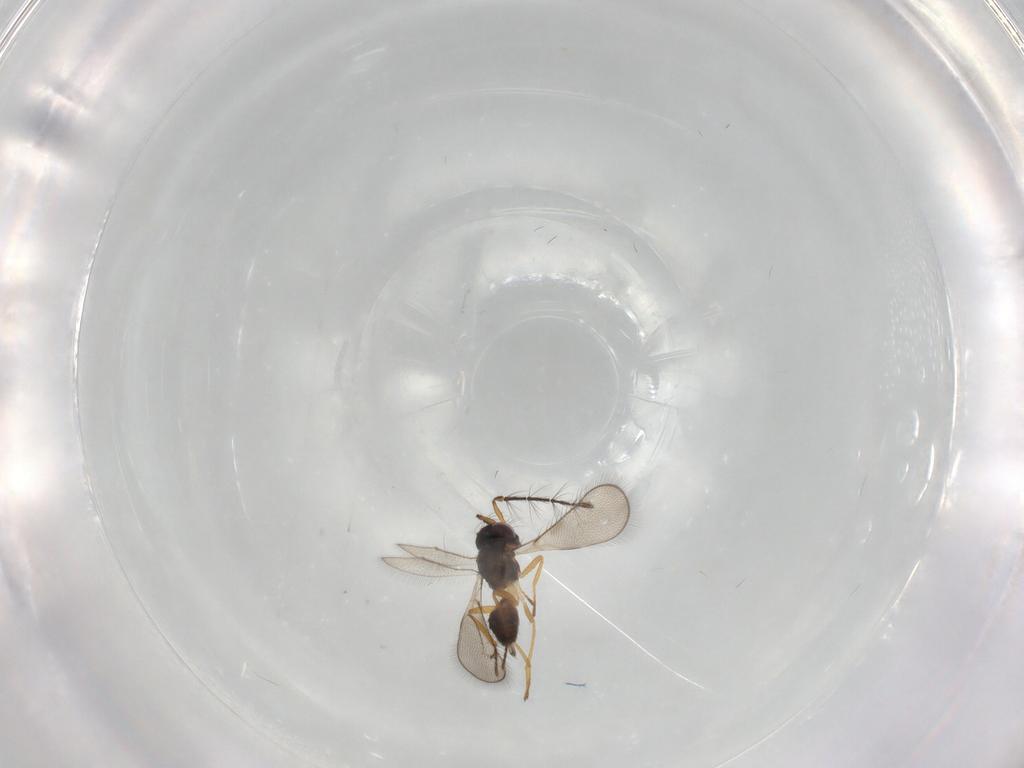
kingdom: Animalia
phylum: Arthropoda
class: Insecta
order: Hymenoptera
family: Eulophidae
